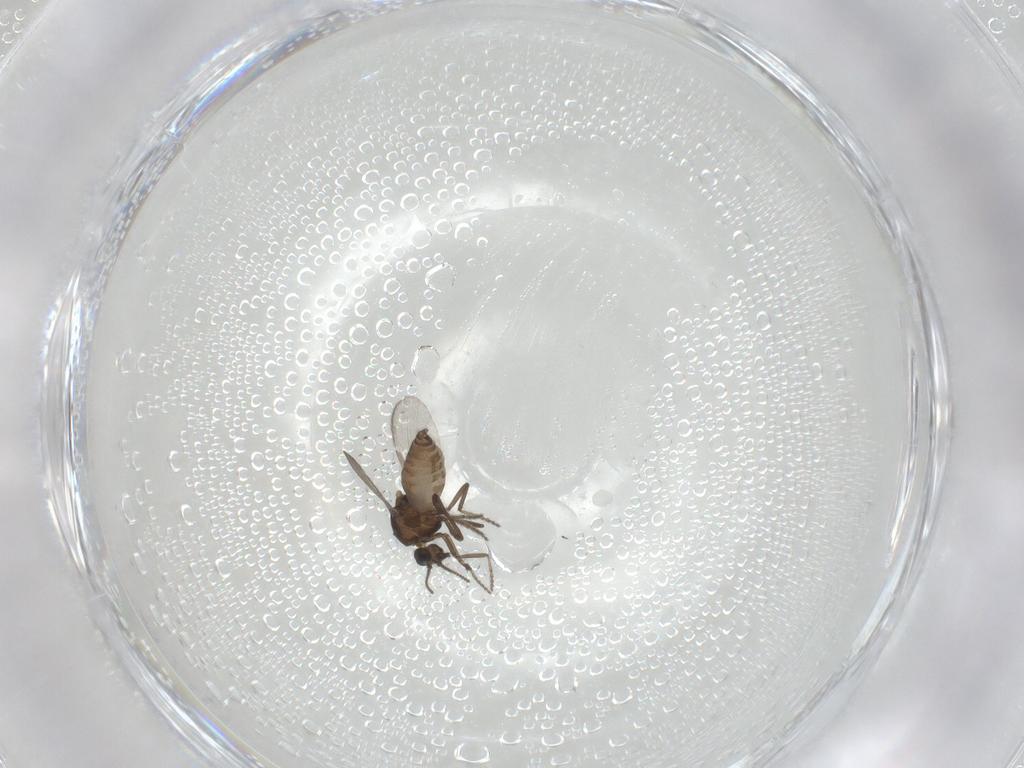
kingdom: Animalia
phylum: Arthropoda
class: Insecta
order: Diptera
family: Ceratopogonidae
